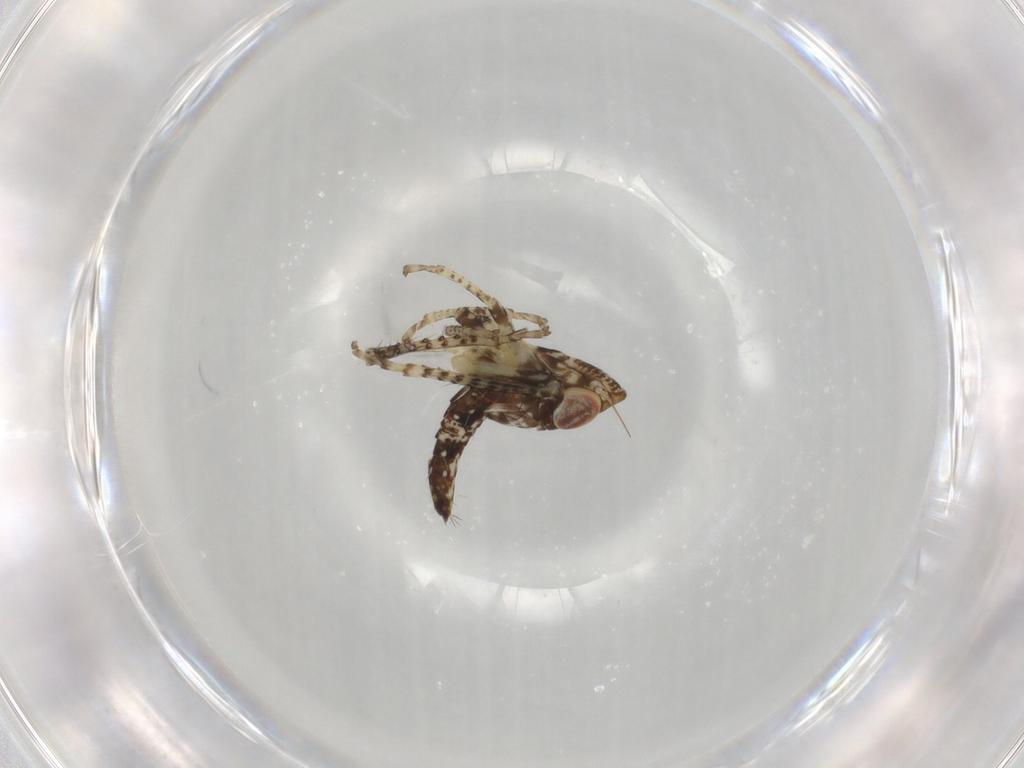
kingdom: Animalia
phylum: Arthropoda
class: Insecta
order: Hemiptera
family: Cicadellidae
